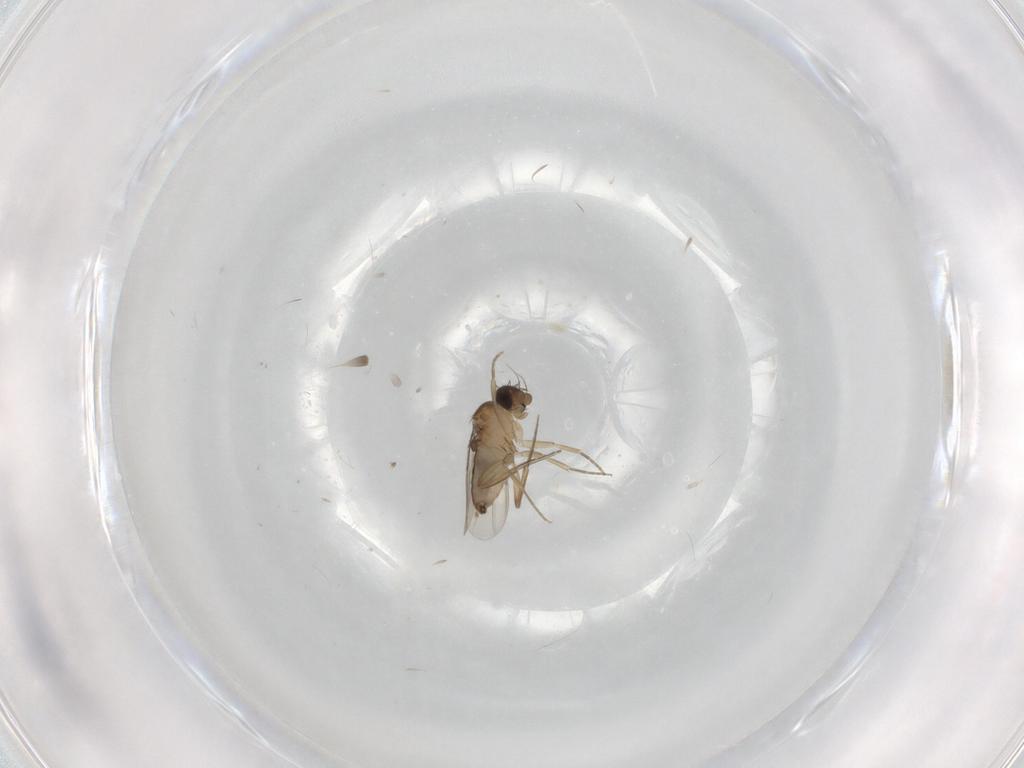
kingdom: Animalia
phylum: Arthropoda
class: Insecta
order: Diptera
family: Phoridae
